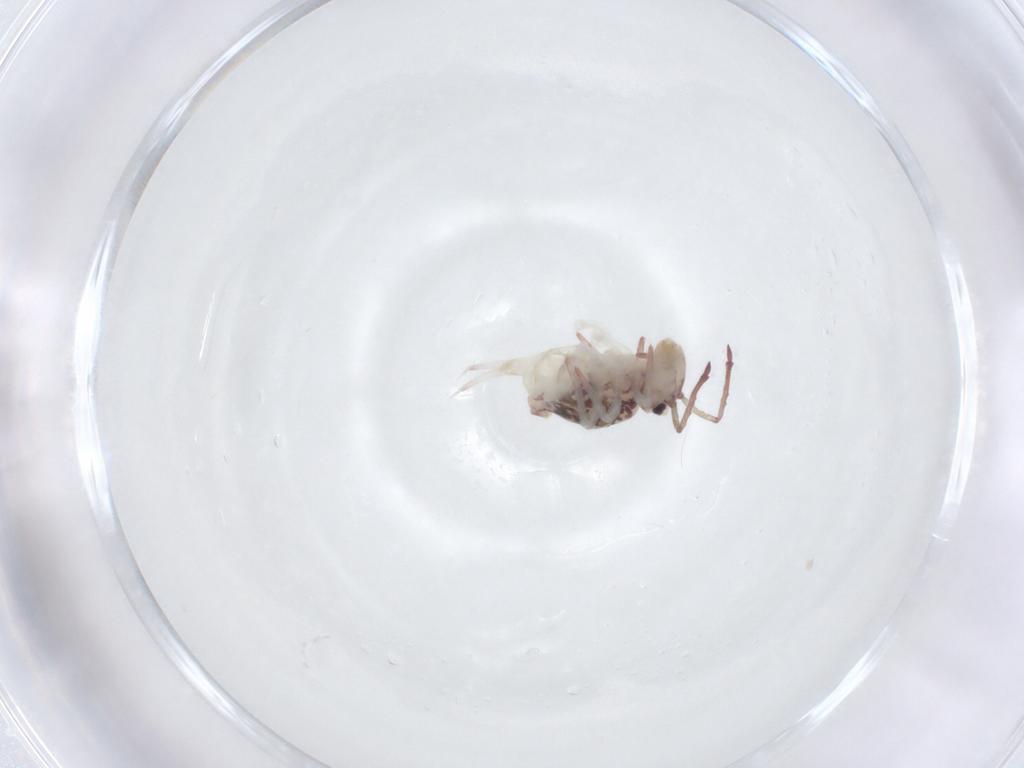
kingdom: Animalia
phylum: Arthropoda
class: Collembola
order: Symphypleona
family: Dicyrtomidae
